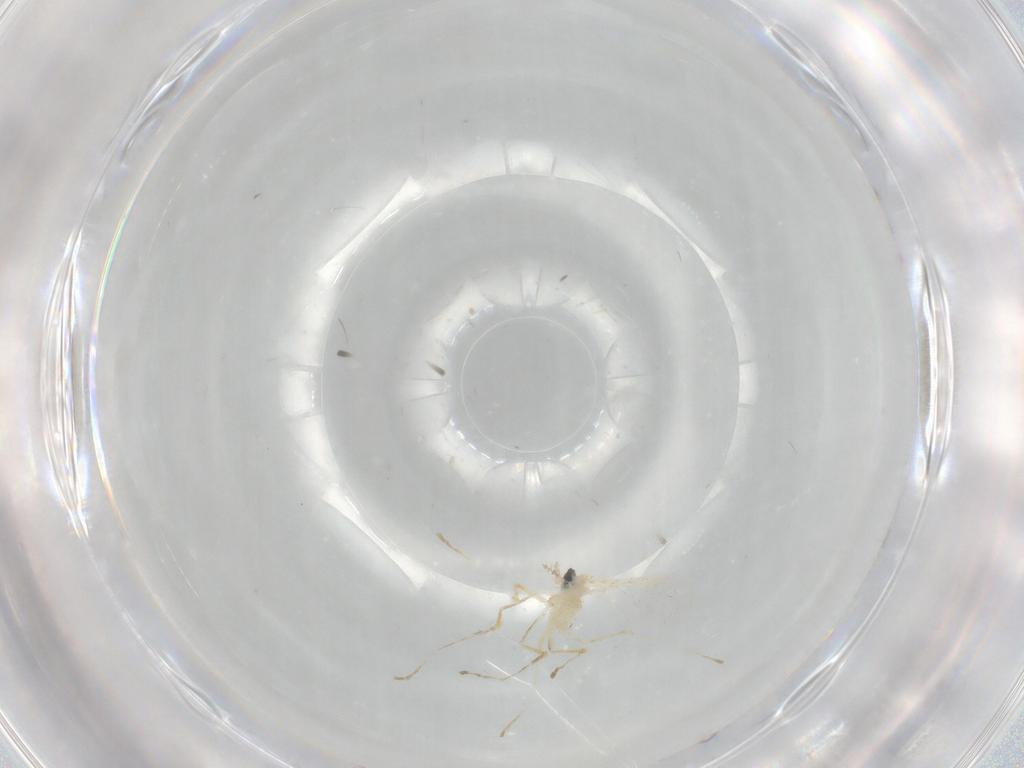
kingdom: Animalia
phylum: Arthropoda
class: Insecta
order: Diptera
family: Cecidomyiidae
